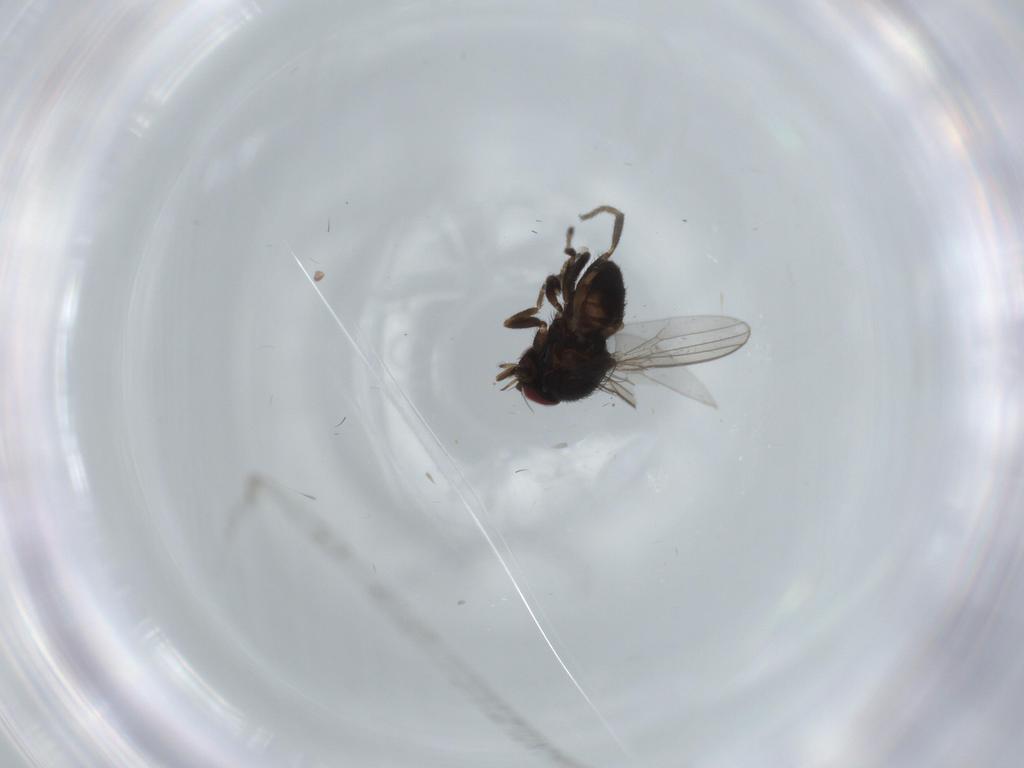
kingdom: Animalia
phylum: Arthropoda
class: Insecta
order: Diptera
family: Milichiidae
